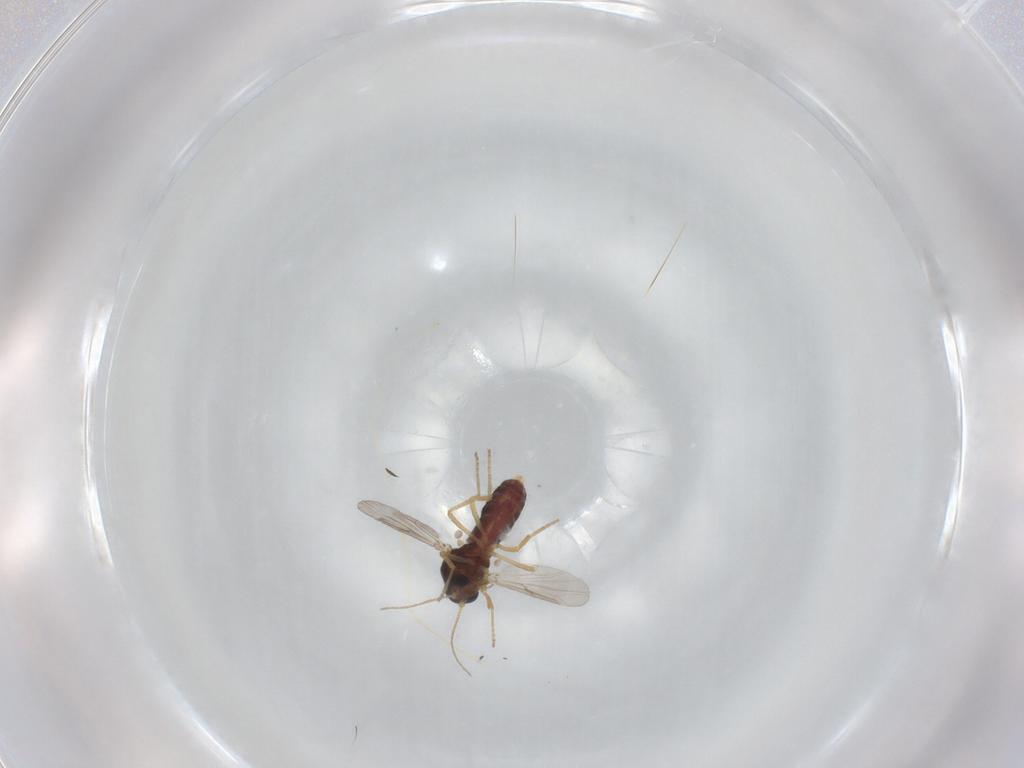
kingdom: Animalia
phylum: Arthropoda
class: Insecta
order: Diptera
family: Ceratopogonidae
